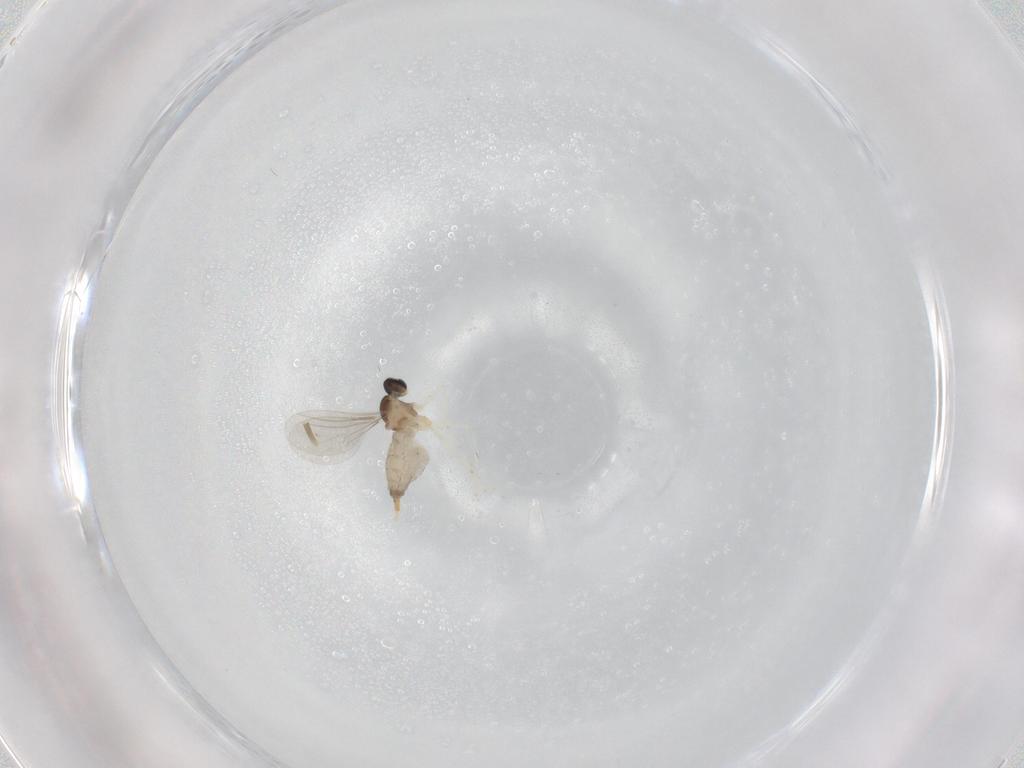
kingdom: Animalia
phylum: Arthropoda
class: Insecta
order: Diptera
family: Cecidomyiidae
